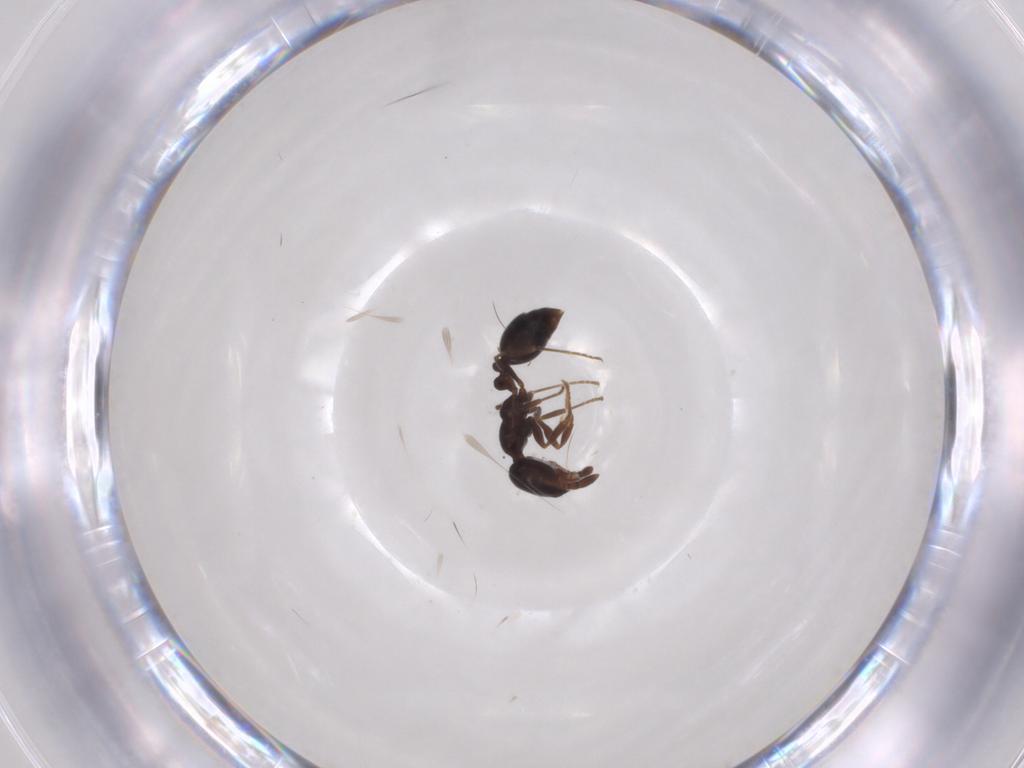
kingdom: Animalia
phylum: Arthropoda
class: Insecta
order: Hymenoptera
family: Formicidae
